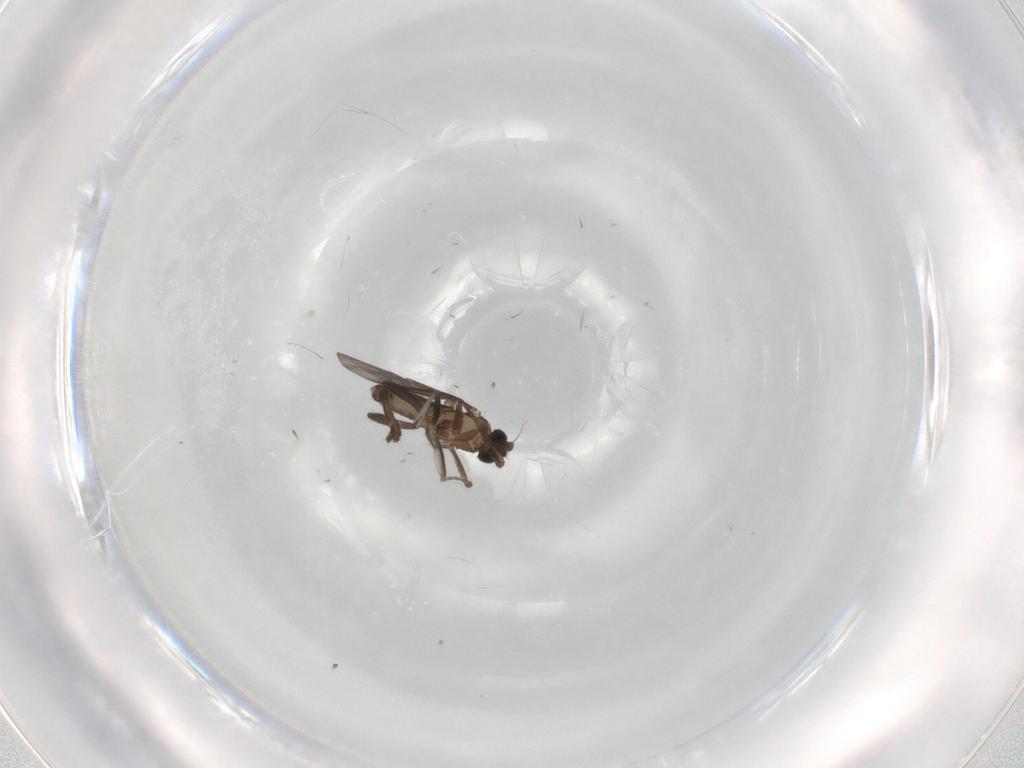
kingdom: Animalia
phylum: Arthropoda
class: Insecta
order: Diptera
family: Phoridae
